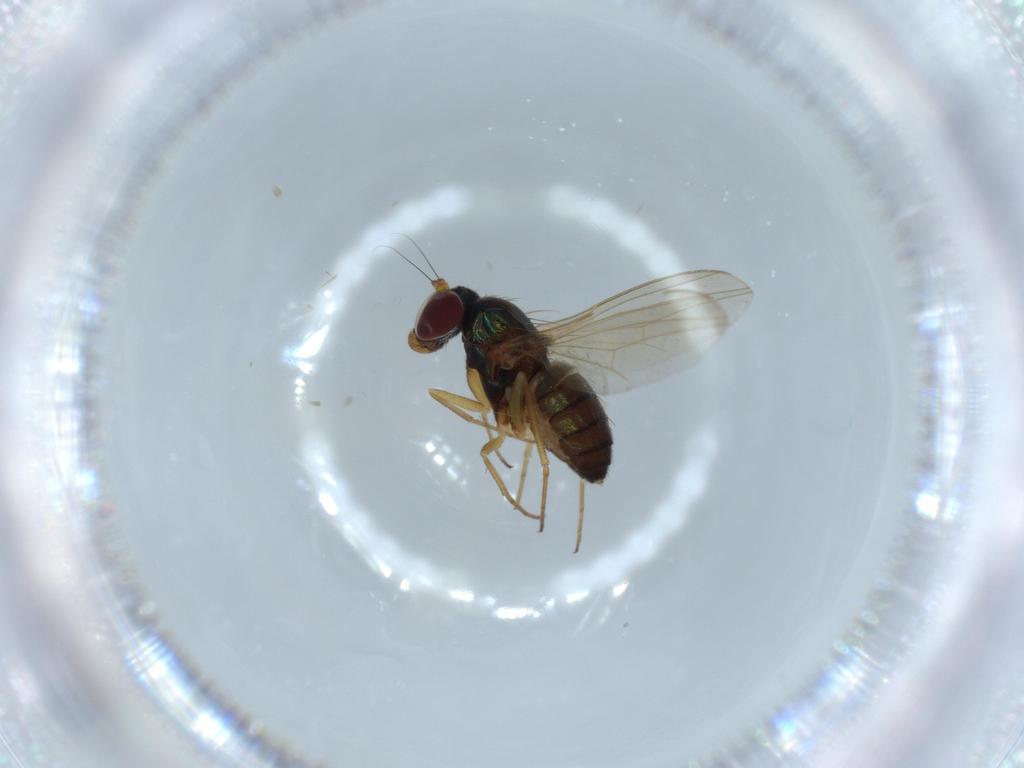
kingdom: Animalia
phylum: Arthropoda
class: Insecta
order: Diptera
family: Dolichopodidae
